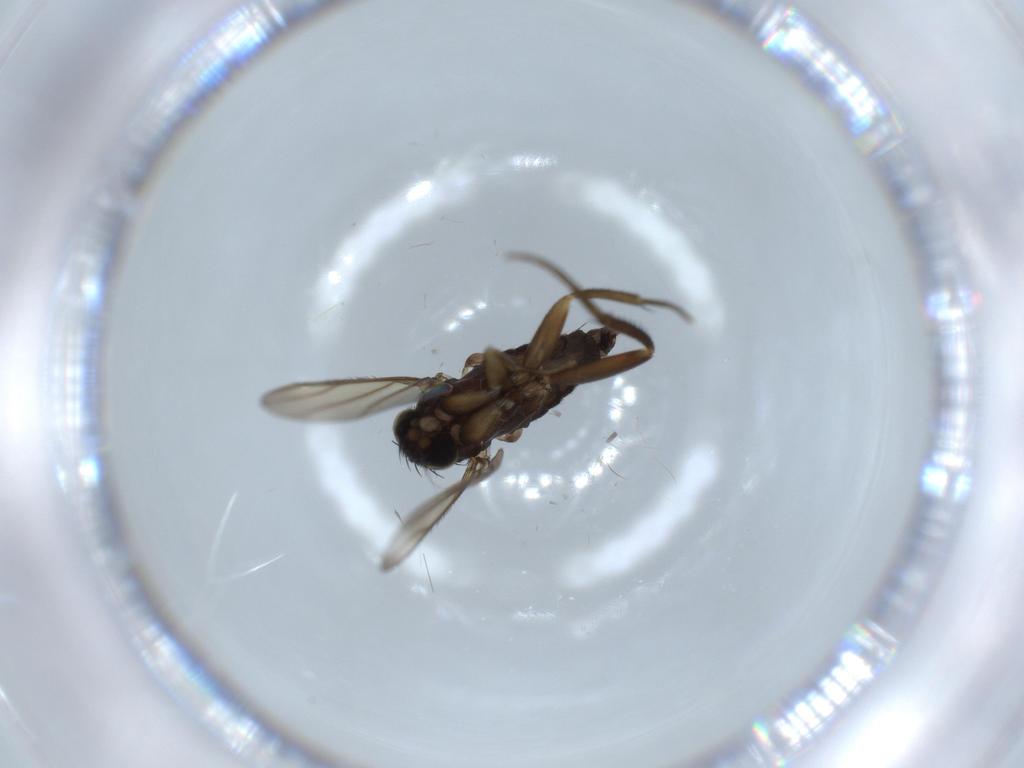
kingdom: Animalia
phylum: Arthropoda
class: Insecta
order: Diptera
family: Phoridae
